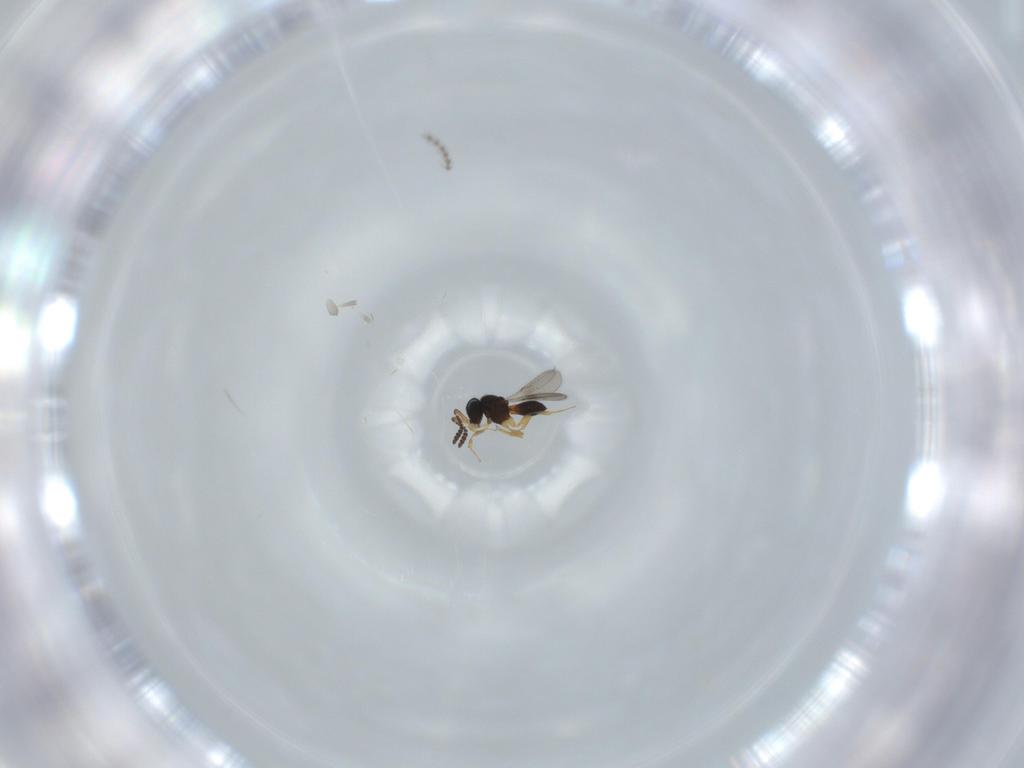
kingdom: Animalia
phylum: Arthropoda
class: Insecta
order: Hymenoptera
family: Scelionidae
